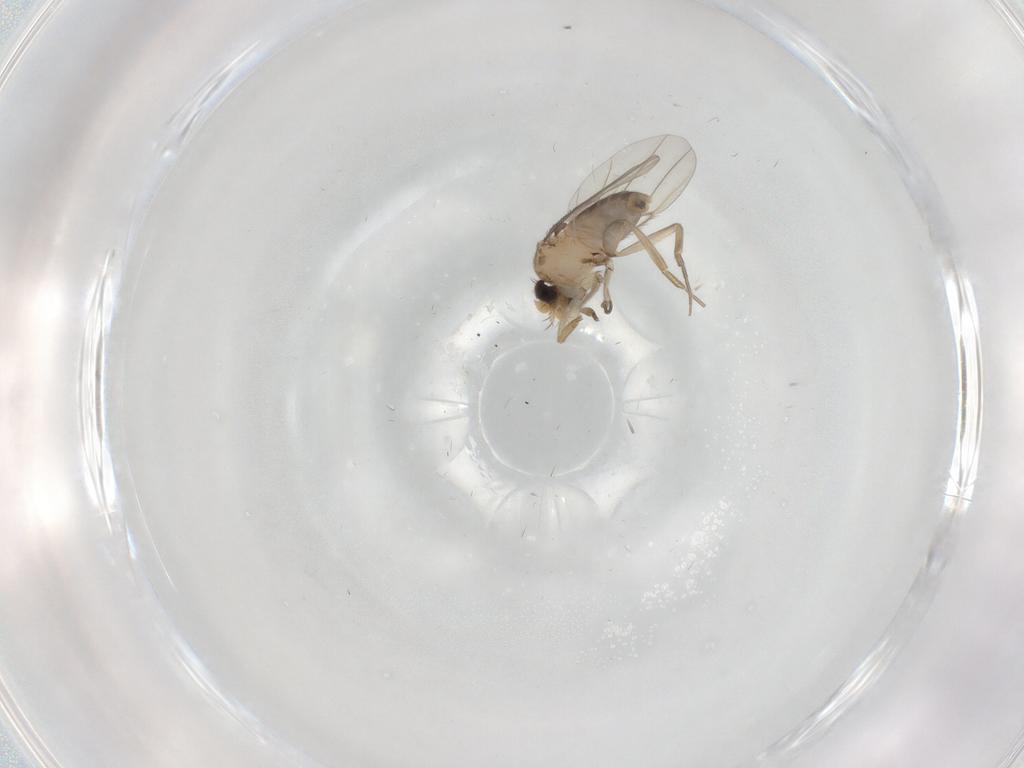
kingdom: Animalia
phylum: Arthropoda
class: Insecta
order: Diptera
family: Phoridae
